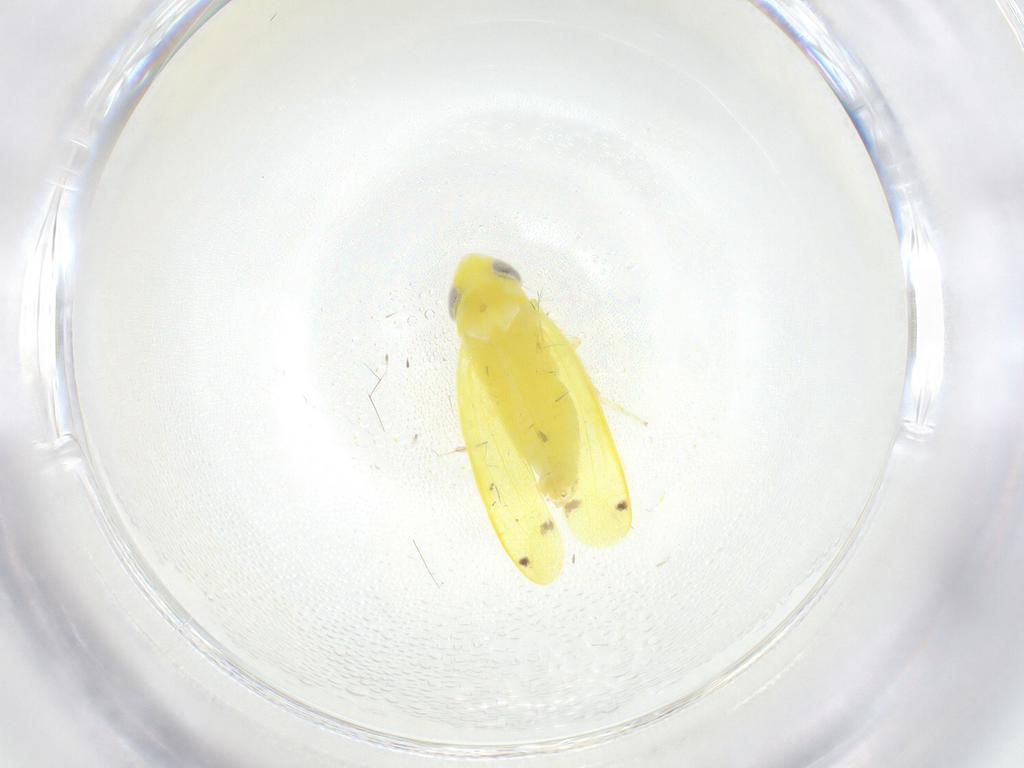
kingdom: Animalia
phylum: Arthropoda
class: Insecta
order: Hemiptera
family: Cicadellidae
